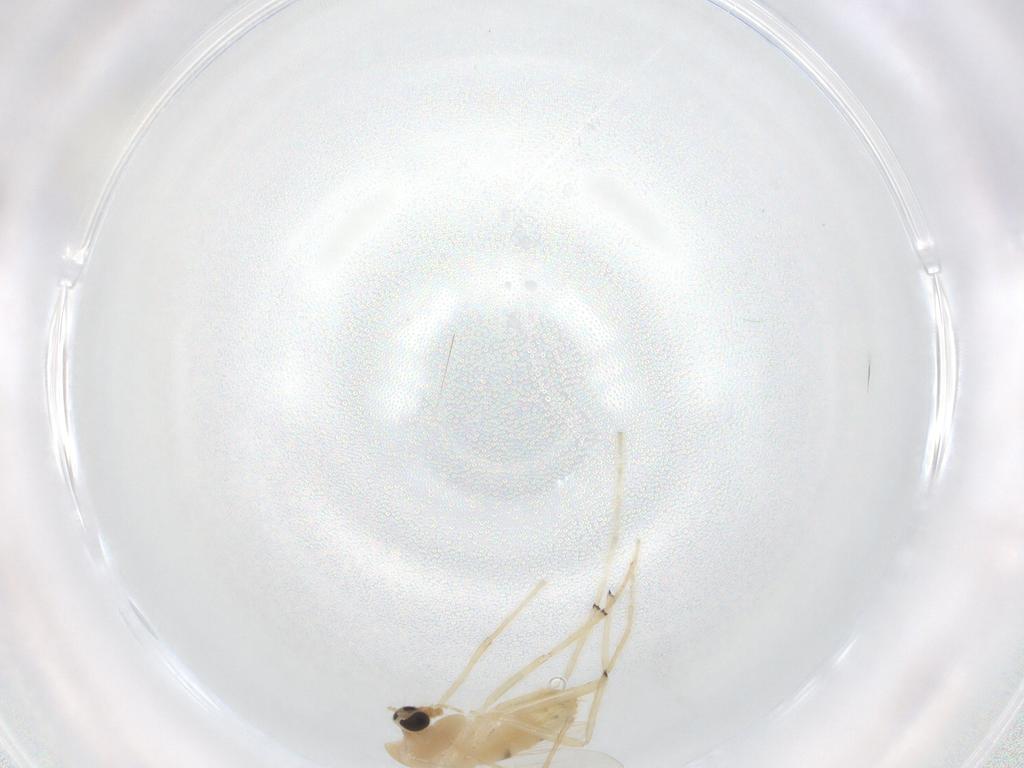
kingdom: Animalia
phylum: Arthropoda
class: Insecta
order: Diptera
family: Chironomidae
